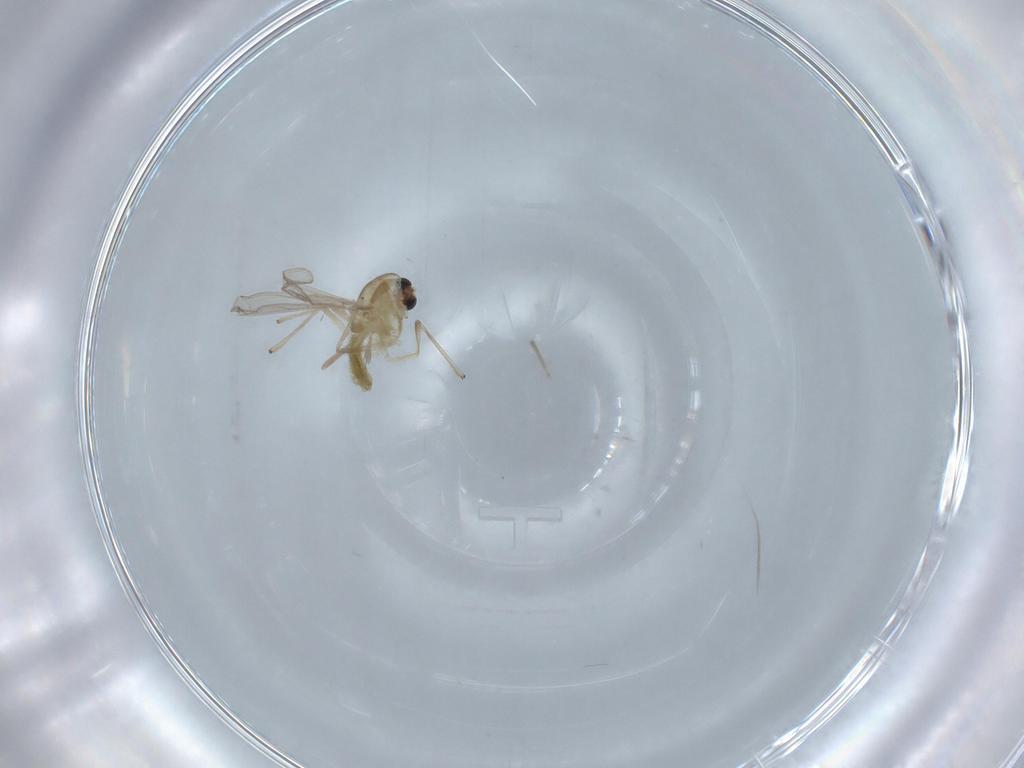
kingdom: Animalia
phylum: Arthropoda
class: Insecta
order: Diptera
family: Chironomidae
